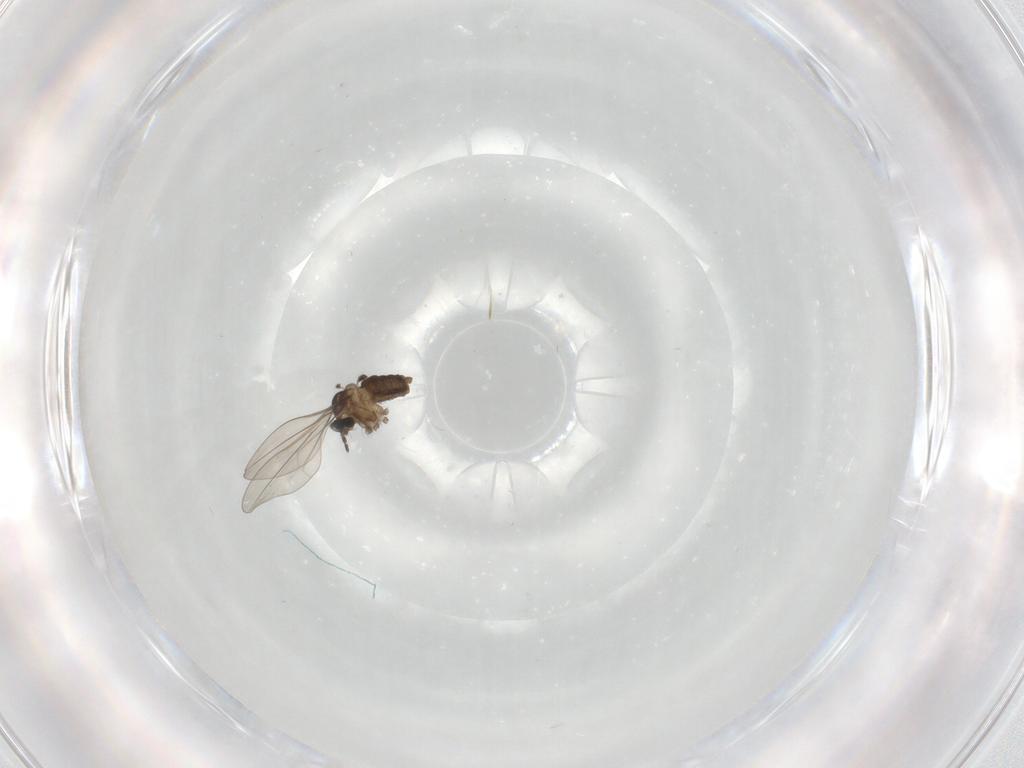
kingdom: Animalia
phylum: Arthropoda
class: Insecta
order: Diptera
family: Cecidomyiidae
